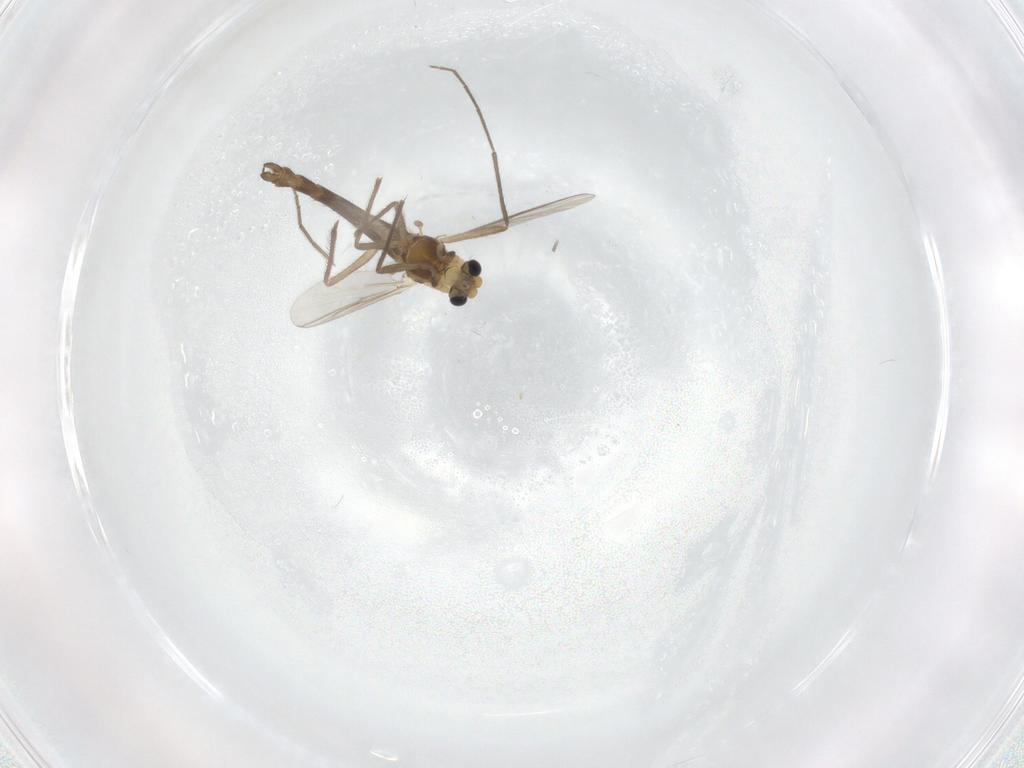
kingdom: Animalia
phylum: Arthropoda
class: Insecta
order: Diptera
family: Chironomidae
